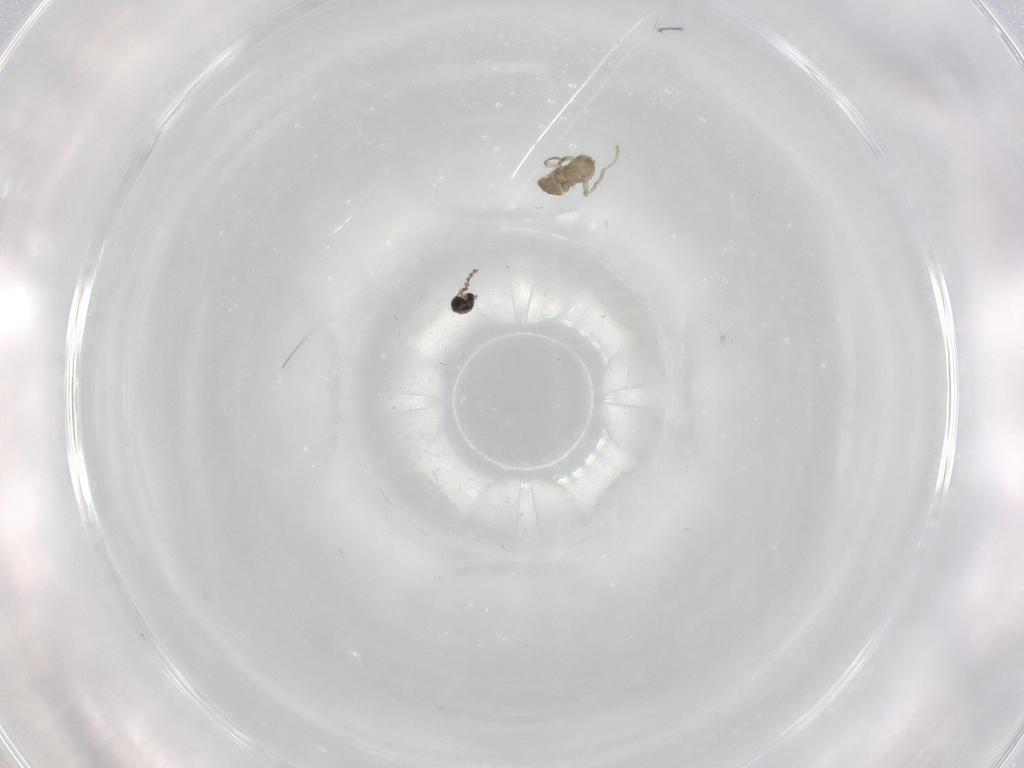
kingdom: Animalia
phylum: Arthropoda
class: Insecta
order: Diptera
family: Cecidomyiidae
